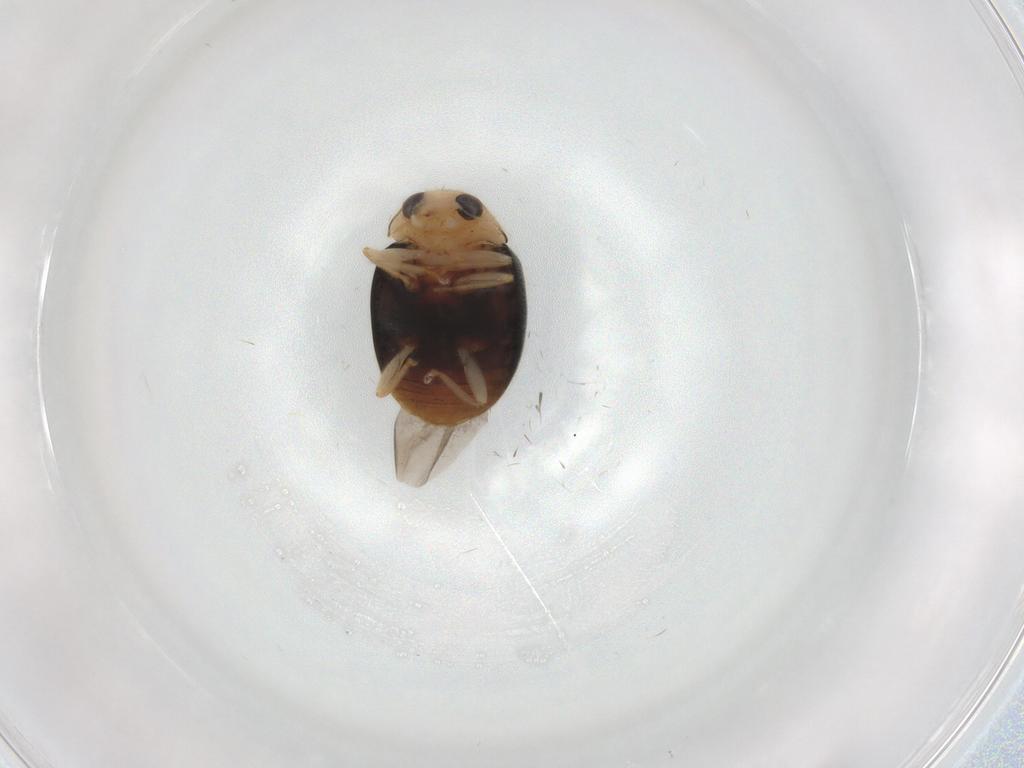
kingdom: Animalia
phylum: Arthropoda
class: Insecta
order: Coleoptera
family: Coccinellidae
